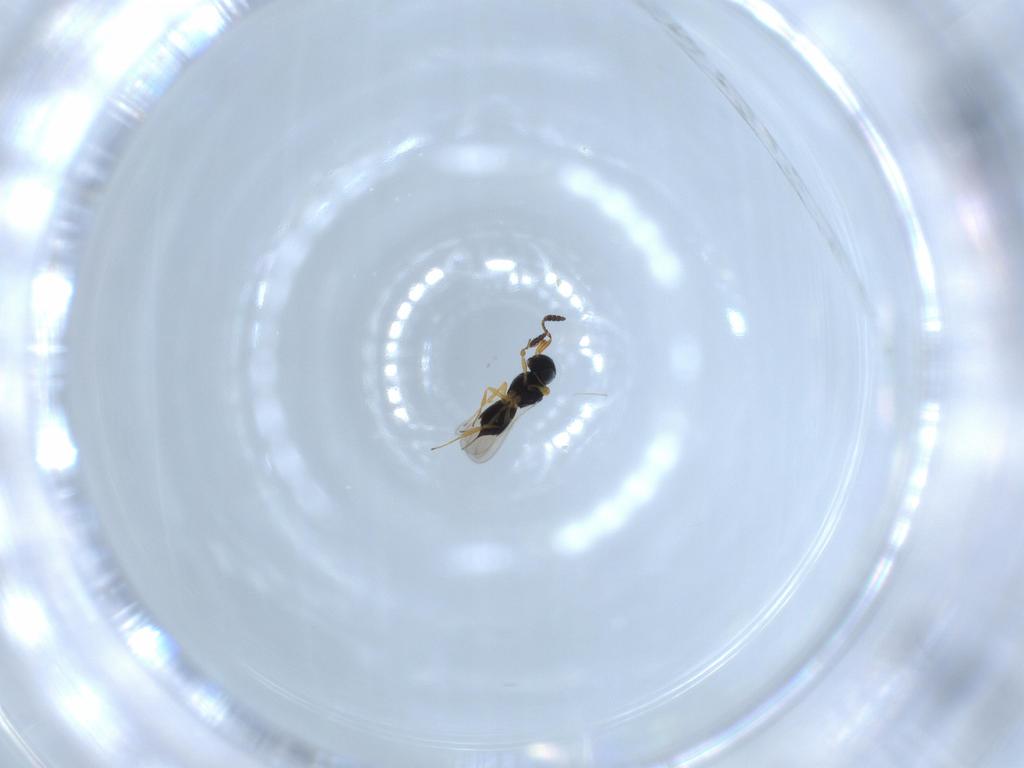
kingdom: Animalia
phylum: Arthropoda
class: Insecta
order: Hymenoptera
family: Scelionidae
